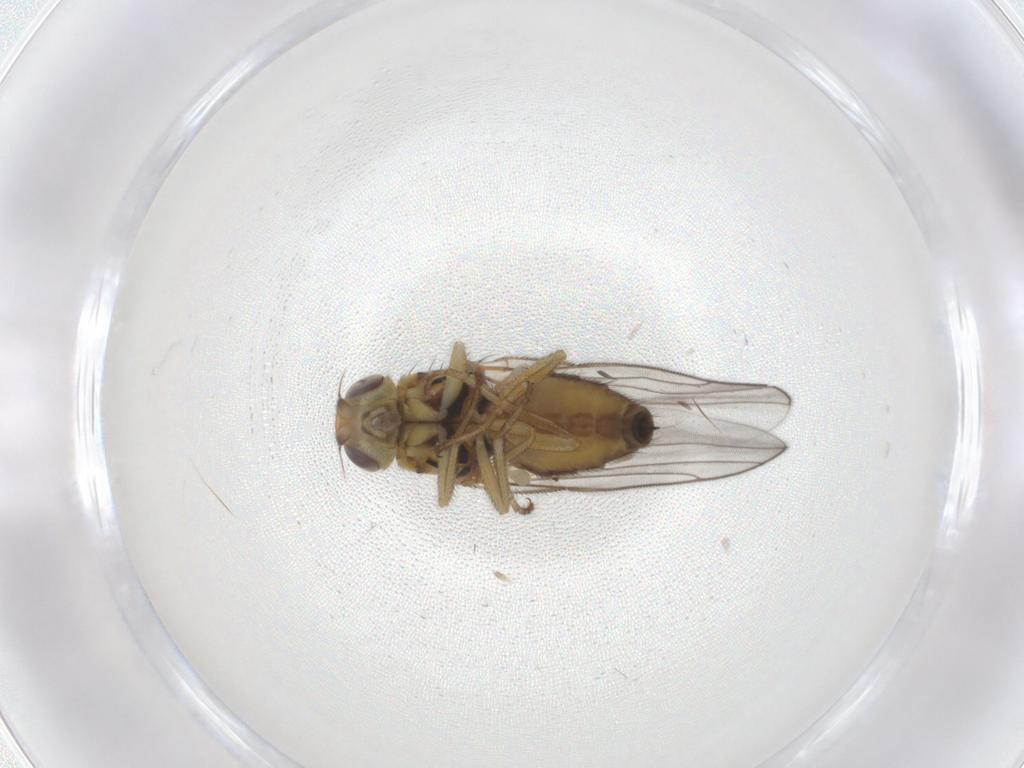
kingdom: Animalia
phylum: Arthropoda
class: Insecta
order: Diptera
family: Chloropidae
